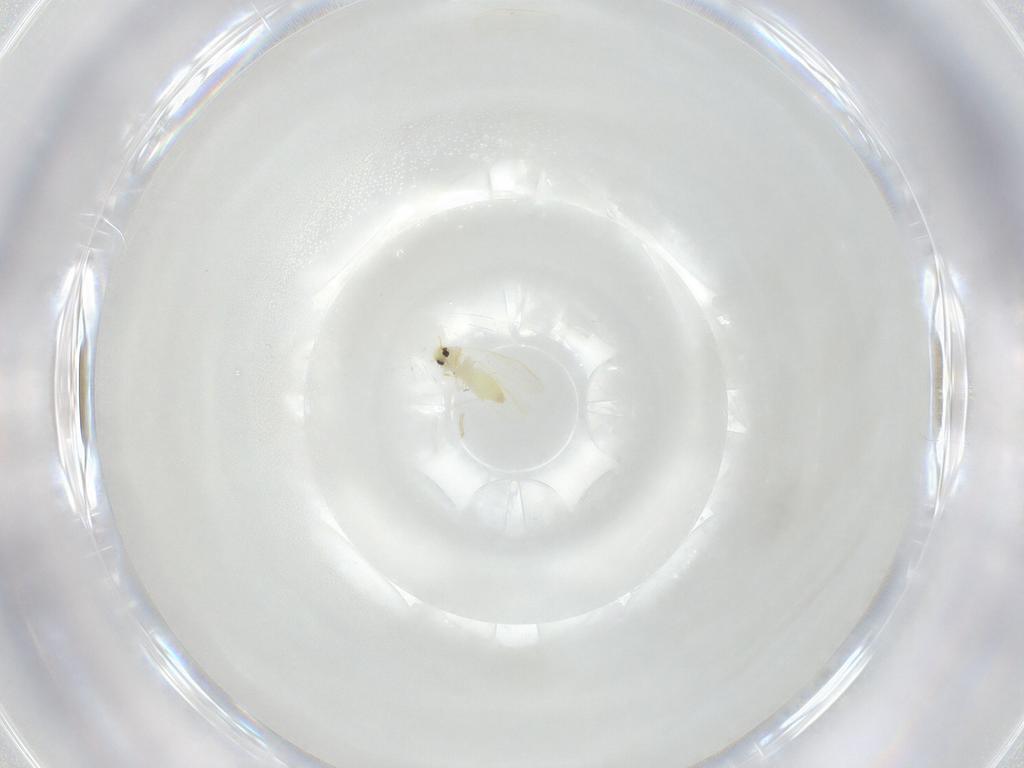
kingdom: Animalia
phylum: Arthropoda
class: Insecta
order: Hemiptera
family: Aleyrodidae
